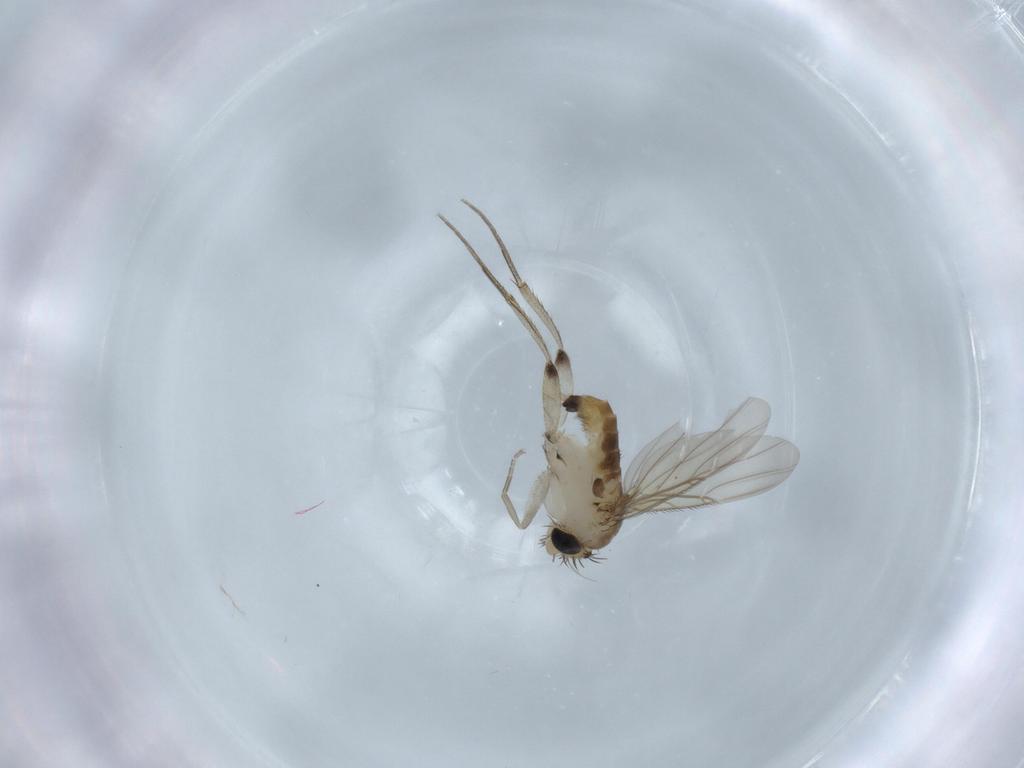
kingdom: Animalia
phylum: Arthropoda
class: Insecta
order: Diptera
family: Phoridae
